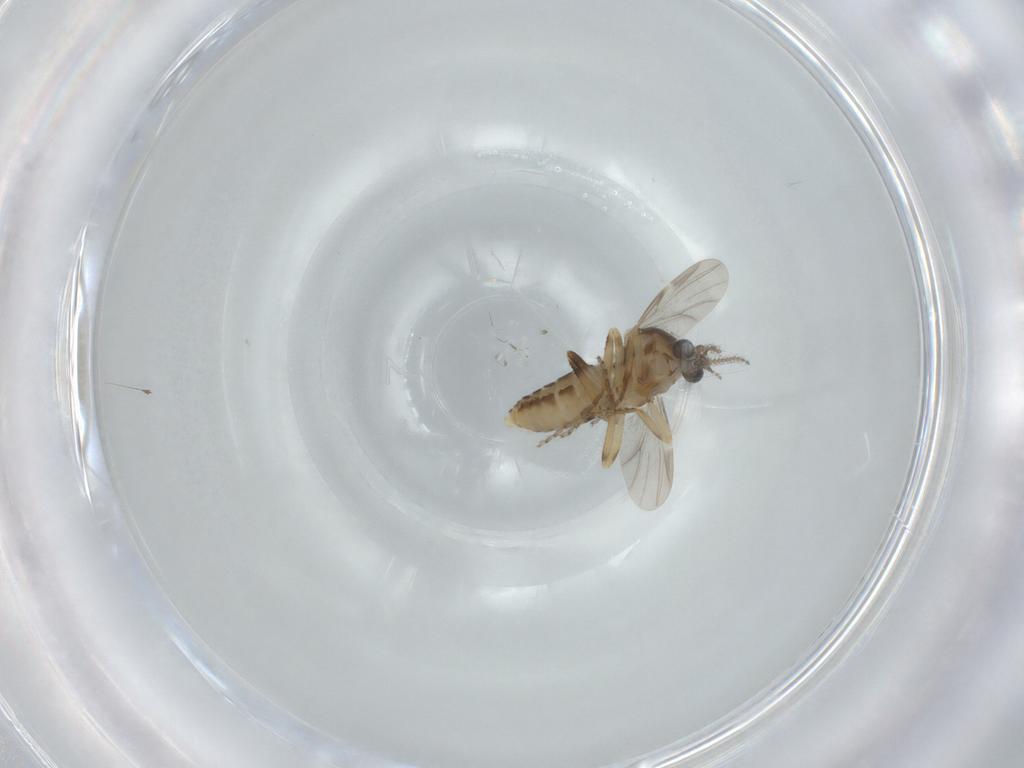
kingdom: Animalia
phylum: Arthropoda
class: Insecta
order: Diptera
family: Ceratopogonidae
